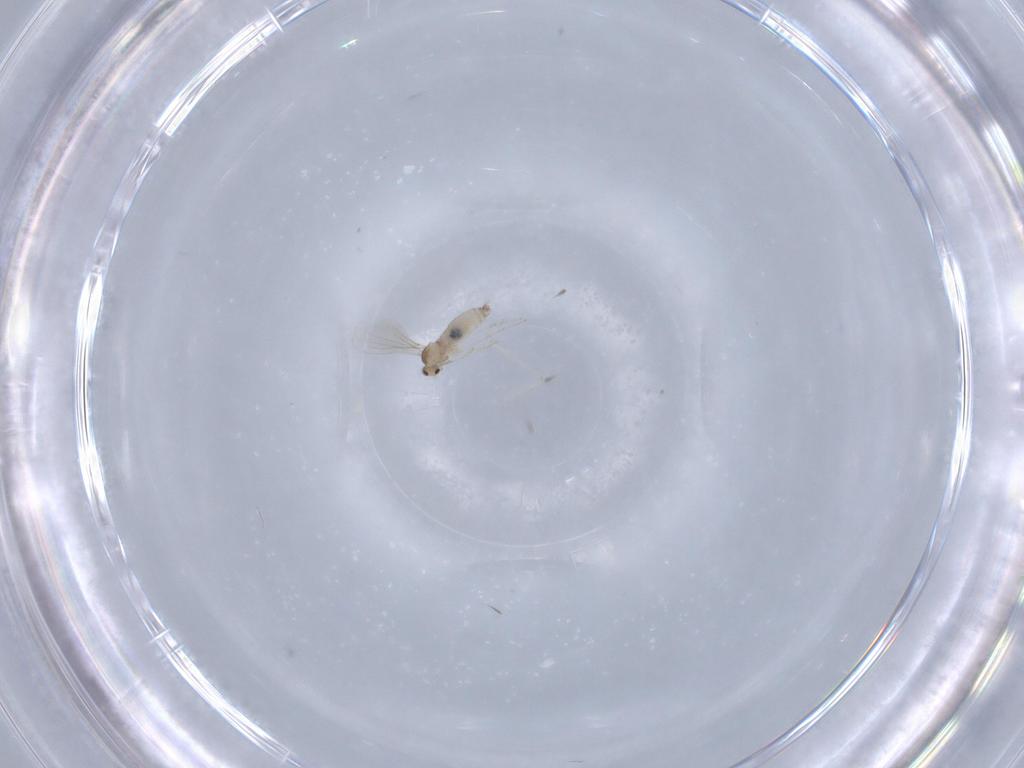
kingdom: Animalia
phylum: Arthropoda
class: Insecta
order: Diptera
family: Cecidomyiidae
